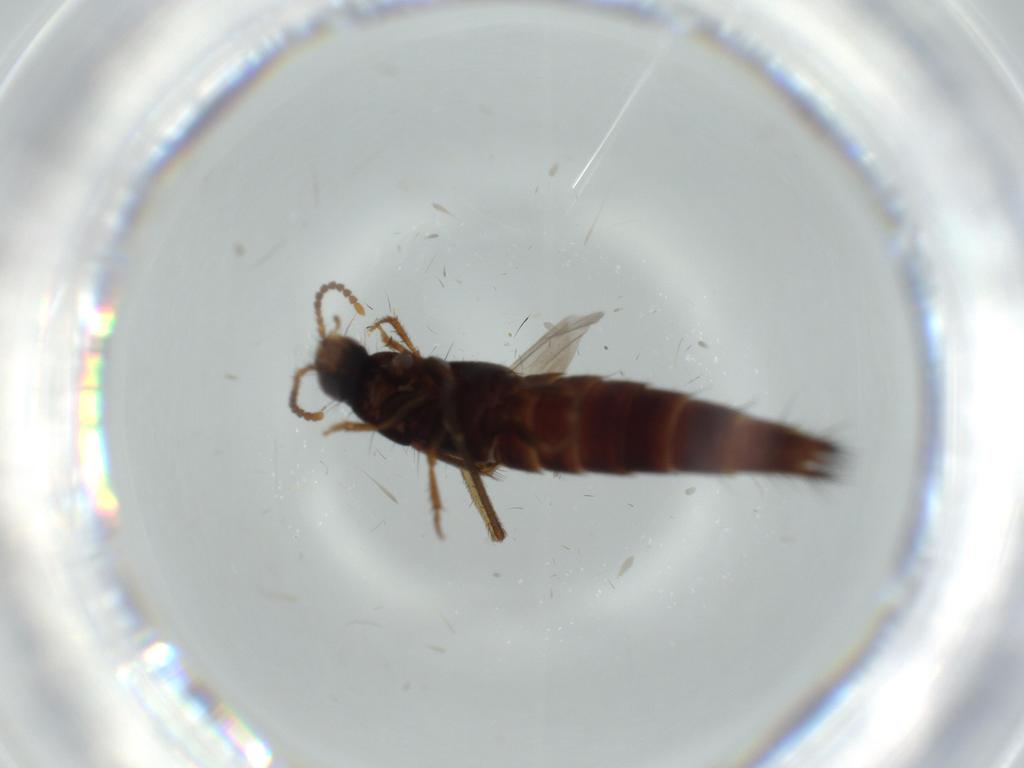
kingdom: Animalia
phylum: Arthropoda
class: Insecta
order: Coleoptera
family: Staphylinidae
